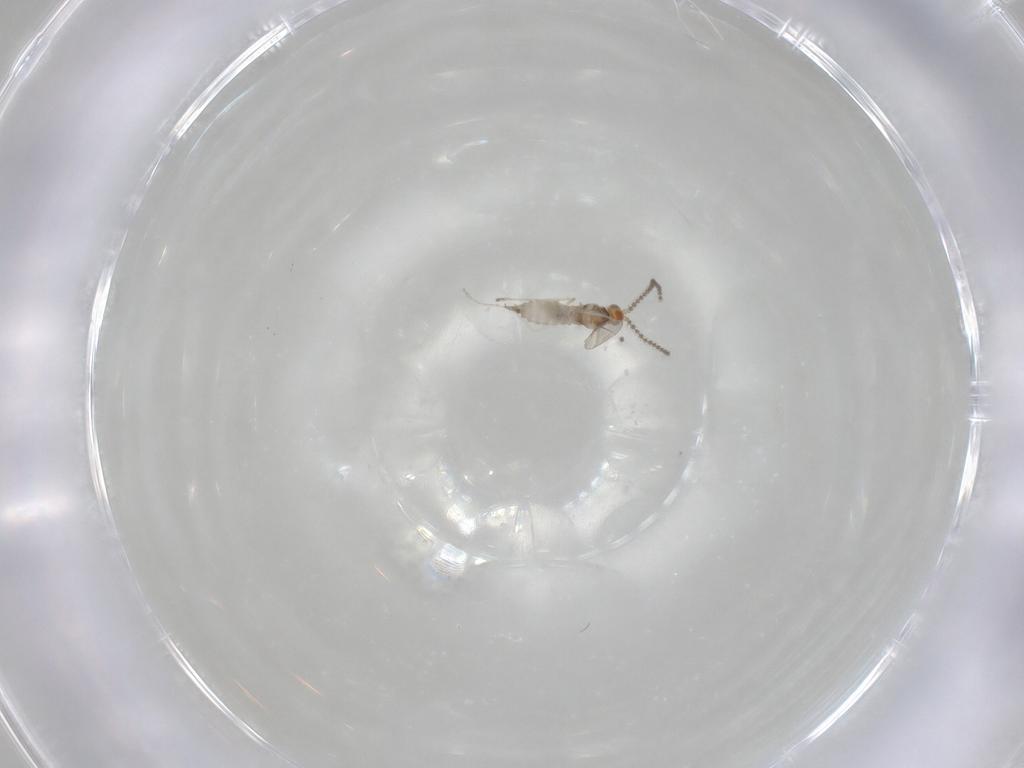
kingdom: Animalia
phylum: Arthropoda
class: Insecta
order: Diptera
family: Cecidomyiidae
